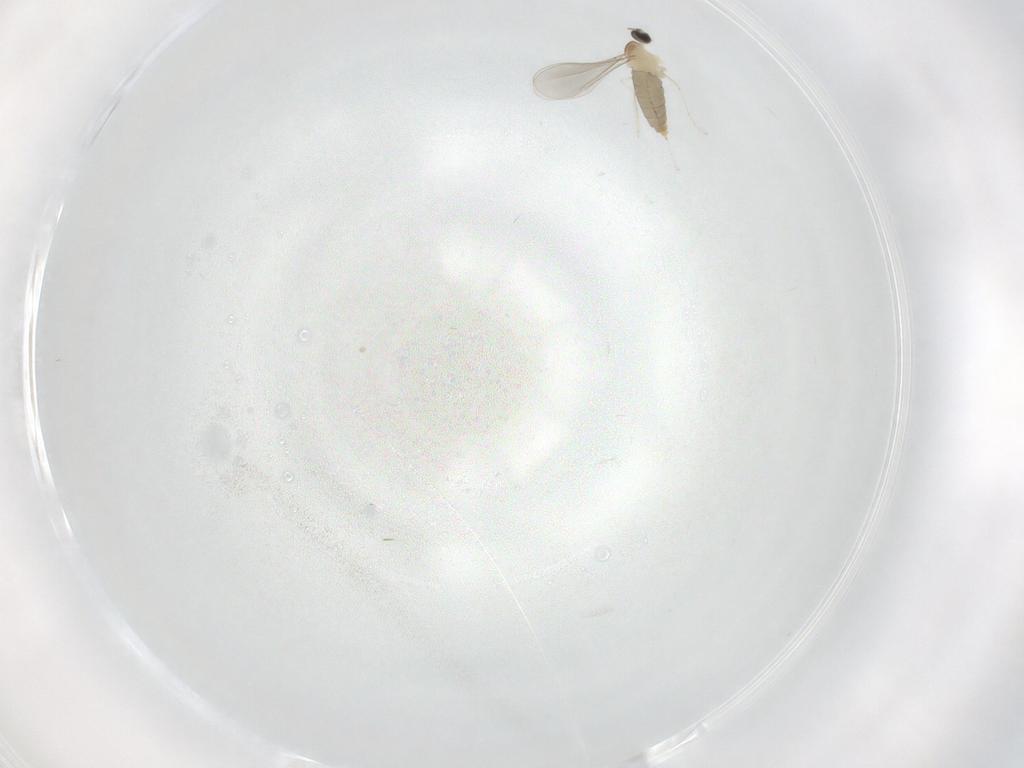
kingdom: Animalia
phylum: Arthropoda
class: Insecta
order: Diptera
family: Cecidomyiidae
